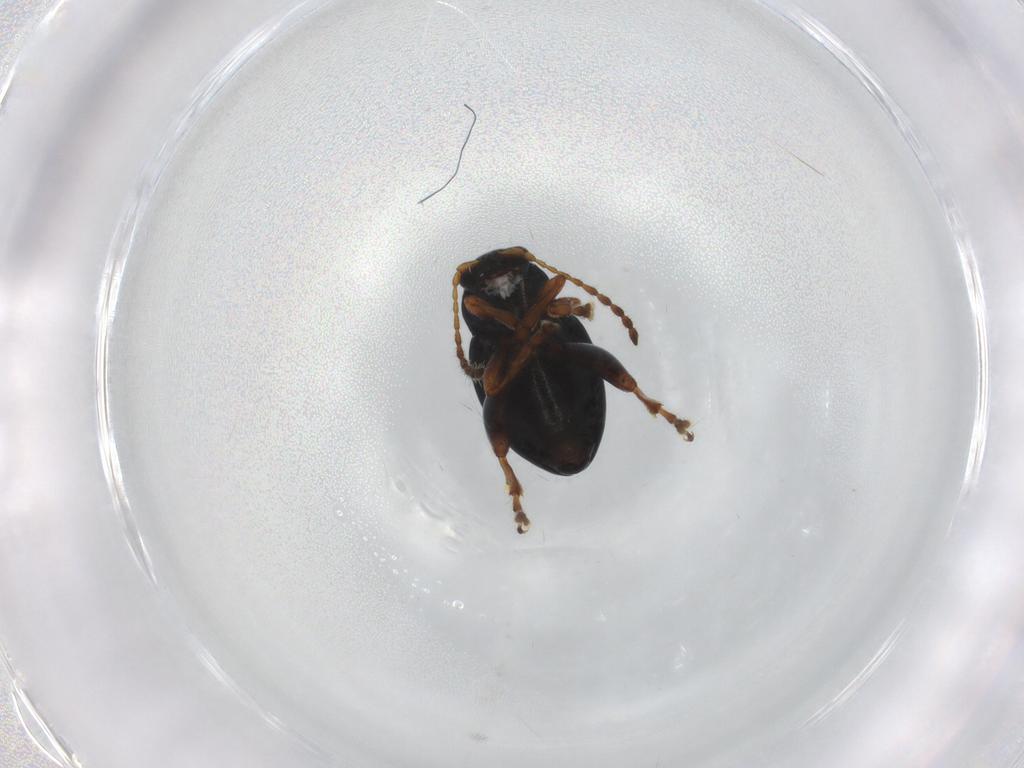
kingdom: Animalia
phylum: Arthropoda
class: Insecta
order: Coleoptera
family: Chrysomelidae
